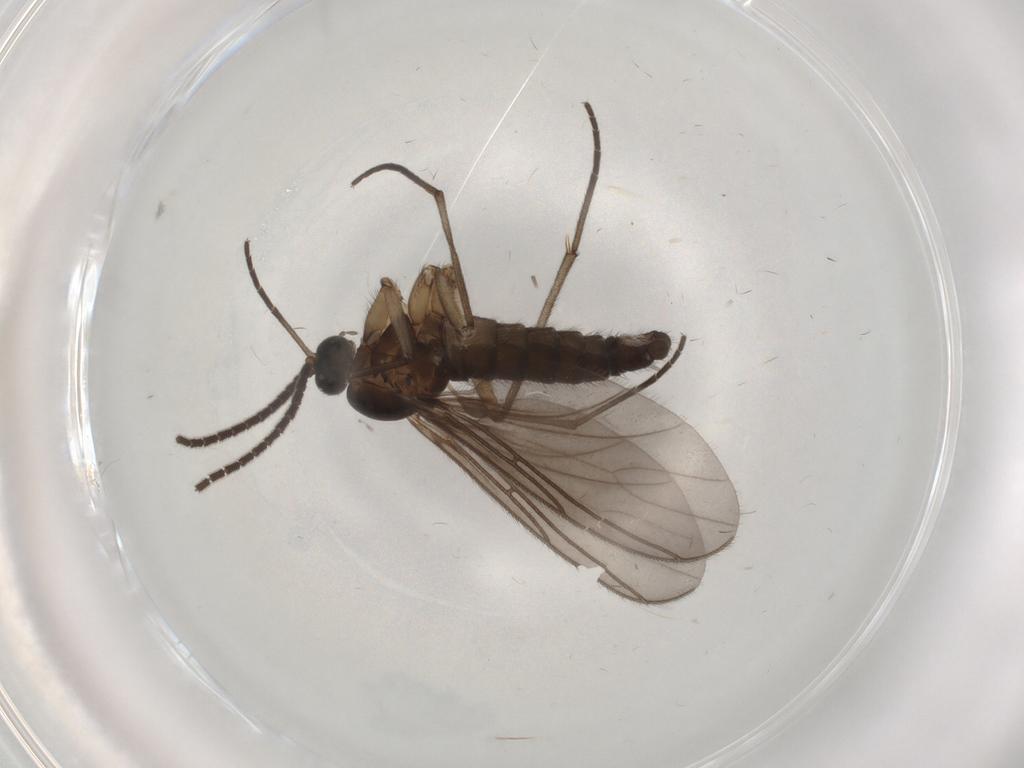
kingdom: Animalia
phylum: Arthropoda
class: Insecta
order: Diptera
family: Sciaridae
